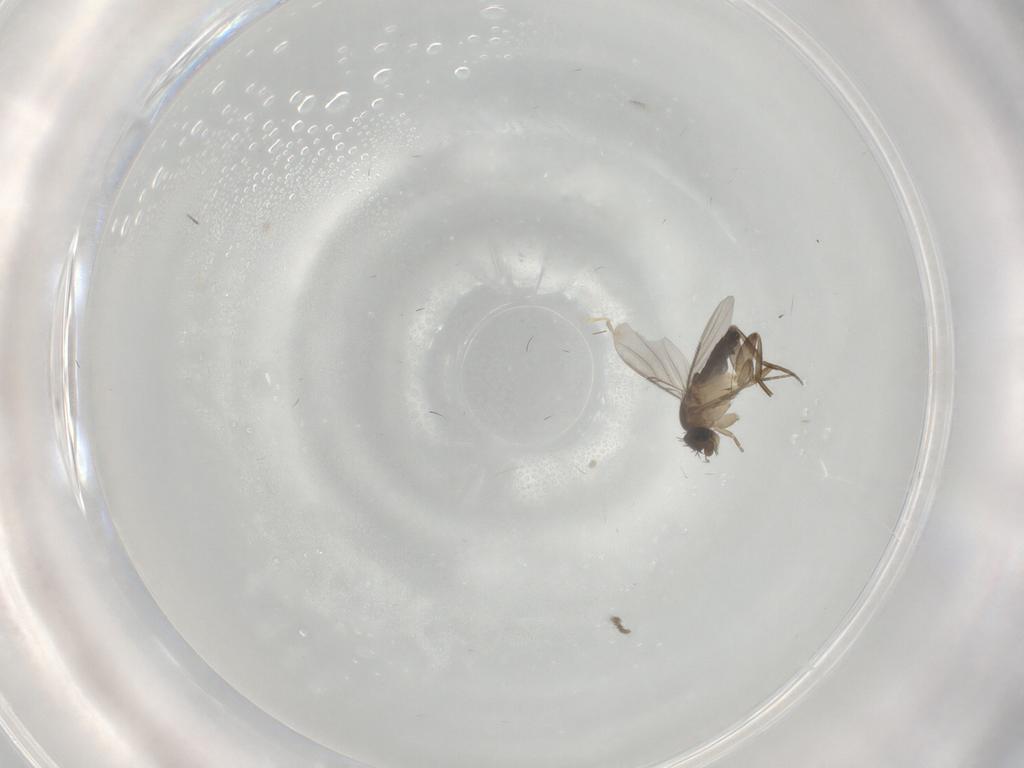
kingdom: Animalia
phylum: Arthropoda
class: Insecta
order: Diptera
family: Phoridae
